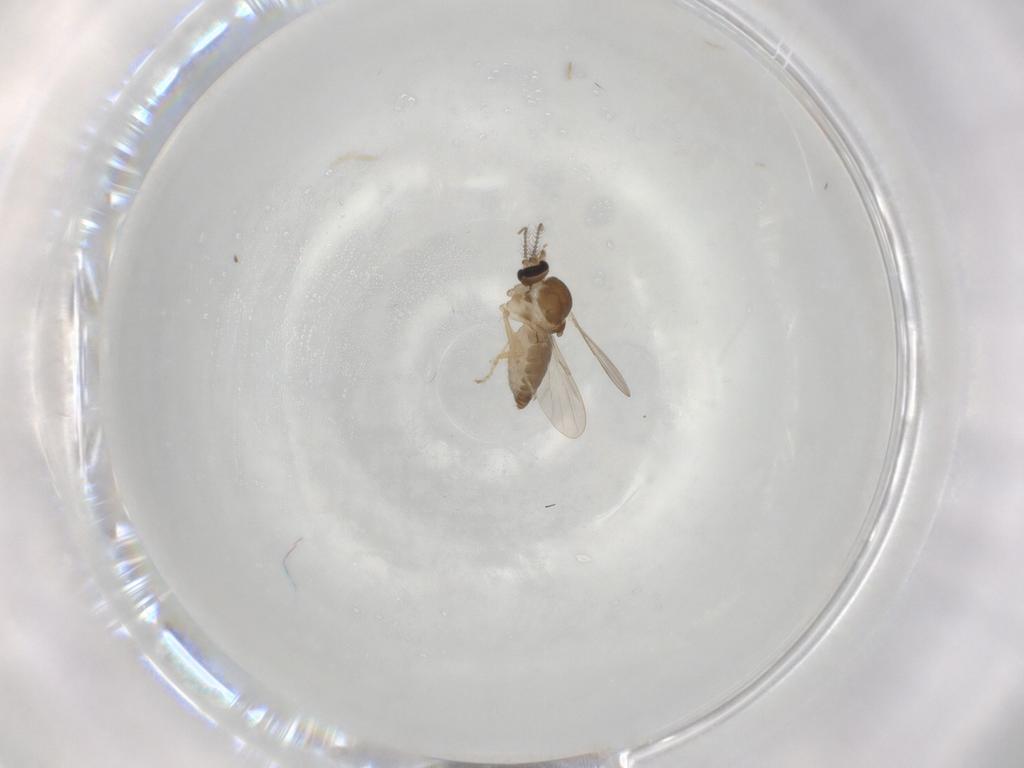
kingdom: Animalia
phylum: Arthropoda
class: Insecta
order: Diptera
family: Ceratopogonidae
